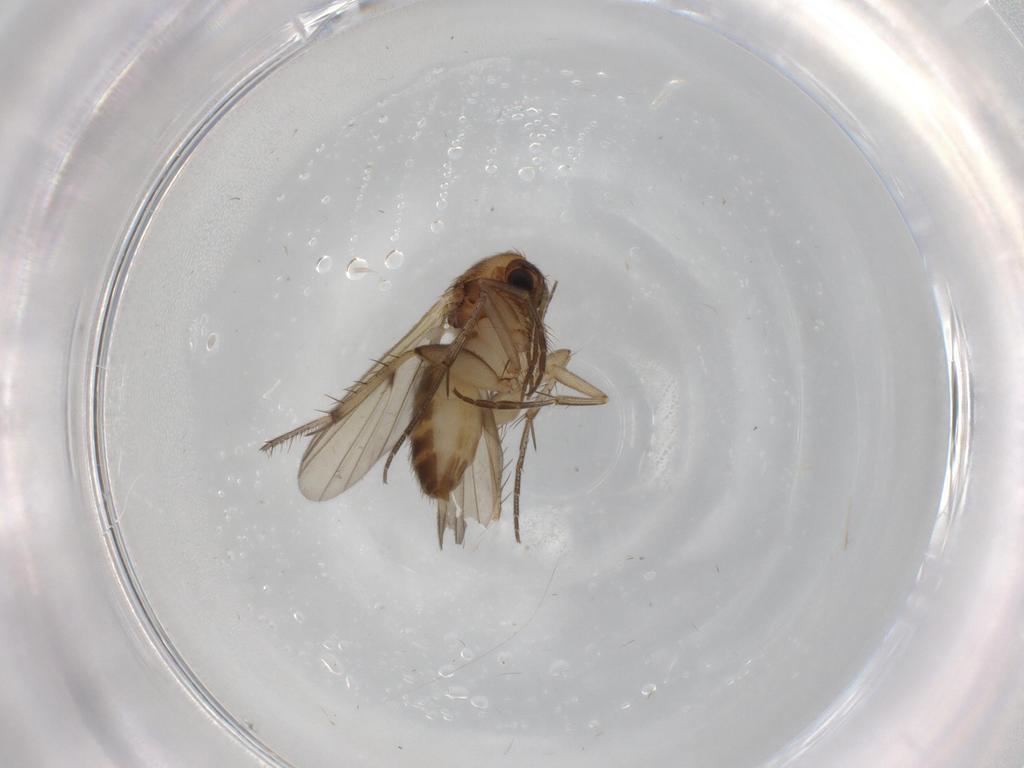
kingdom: Animalia
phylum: Arthropoda
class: Insecta
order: Diptera
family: Mycetophilidae
